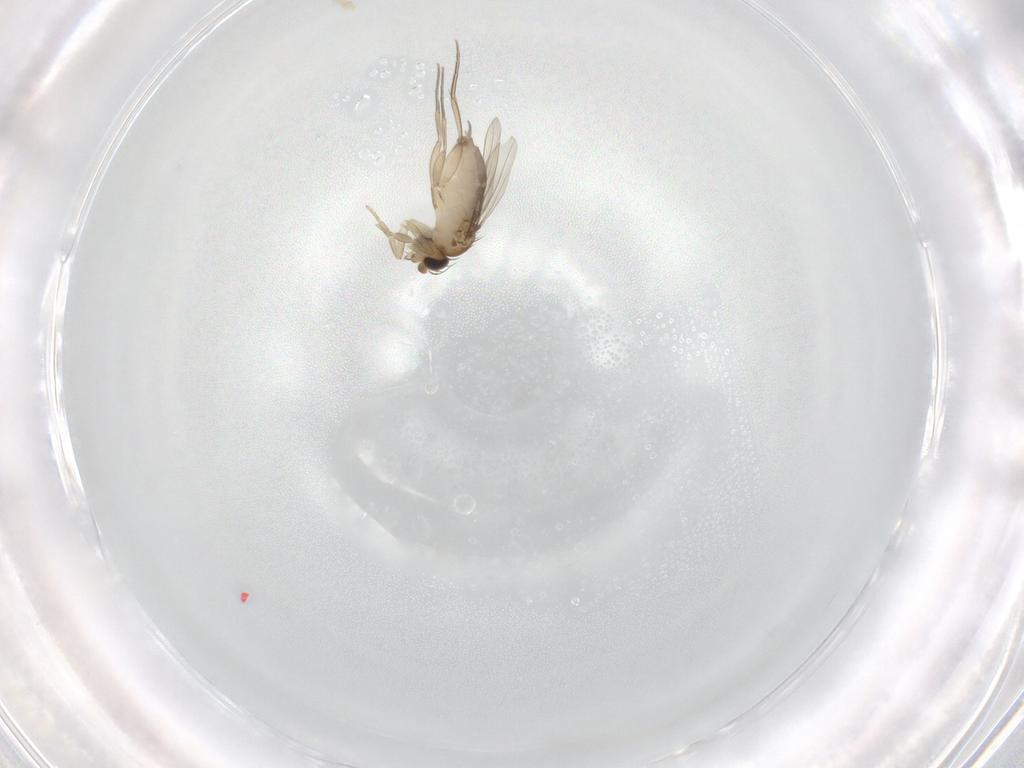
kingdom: Animalia
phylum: Arthropoda
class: Insecta
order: Diptera
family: Phoridae
